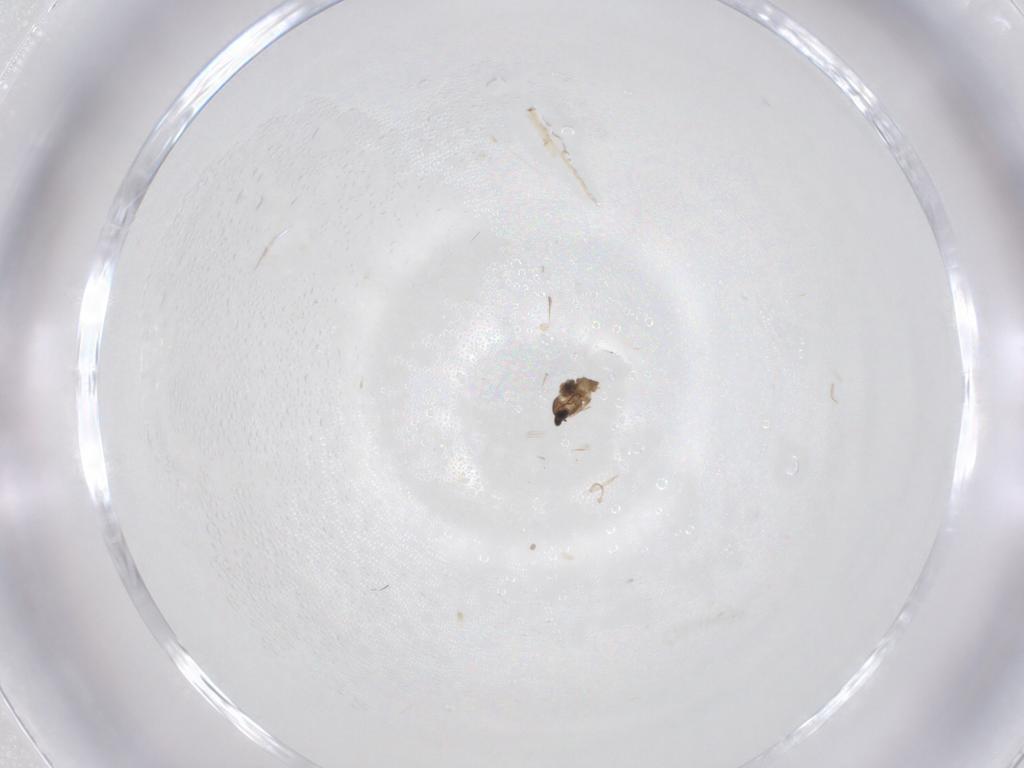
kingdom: Animalia
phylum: Arthropoda
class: Insecta
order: Diptera
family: Cecidomyiidae
